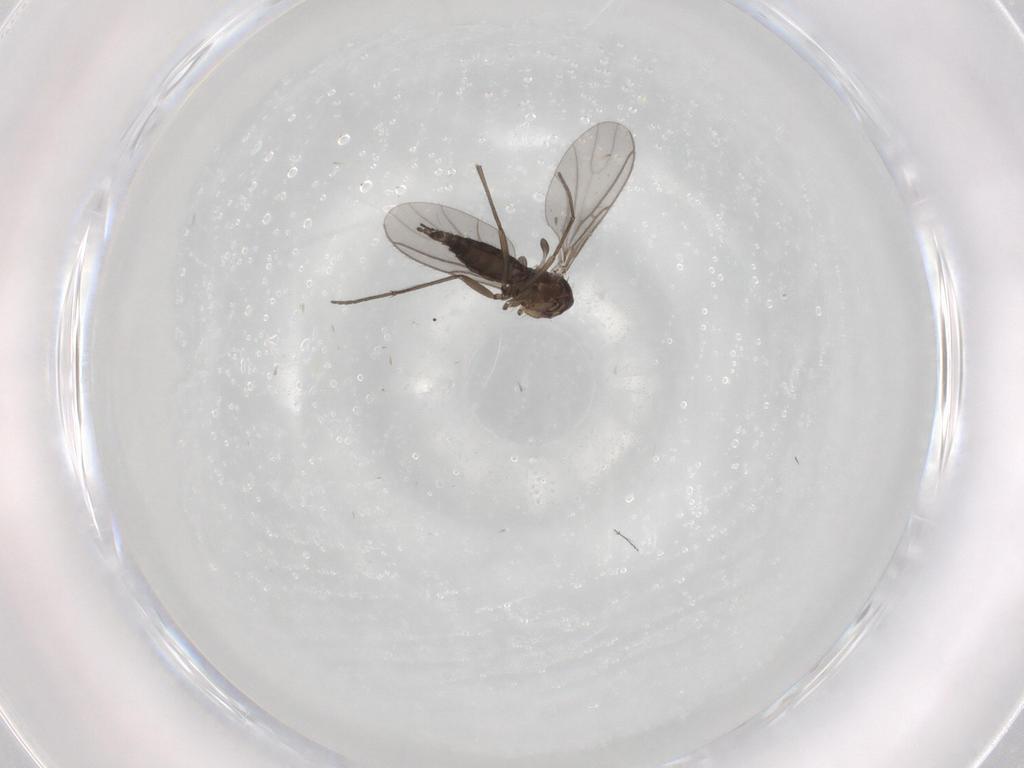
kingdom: Animalia
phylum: Arthropoda
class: Insecta
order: Diptera
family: Sciaridae
